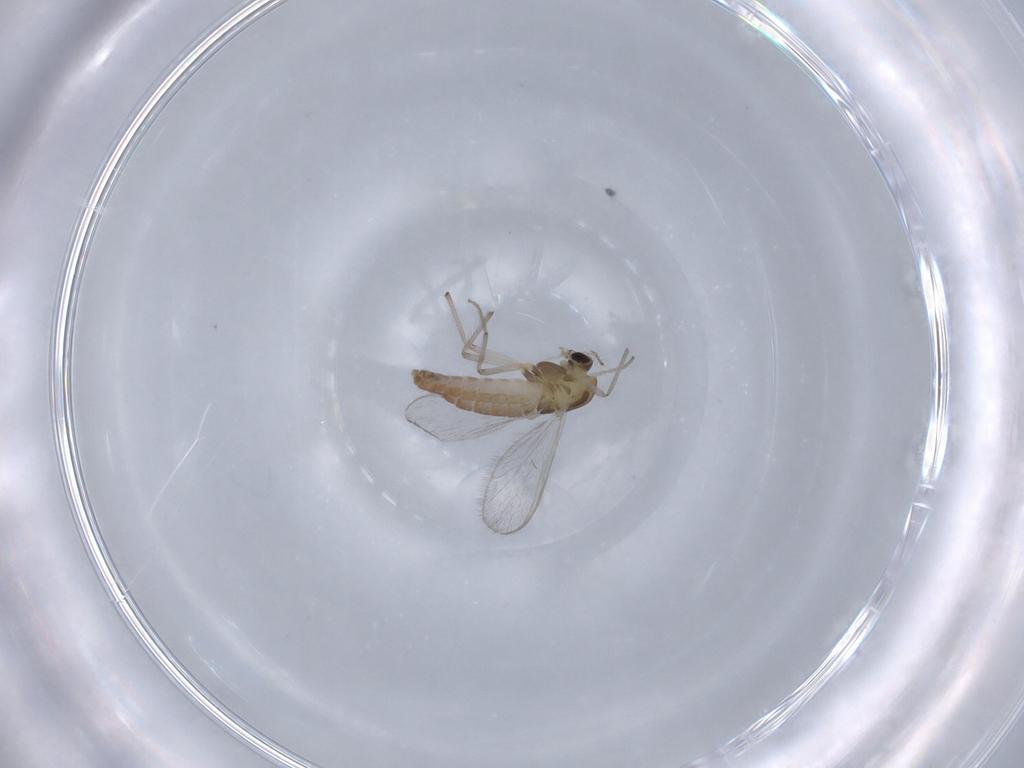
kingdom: Animalia
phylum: Arthropoda
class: Insecta
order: Diptera
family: Chironomidae
